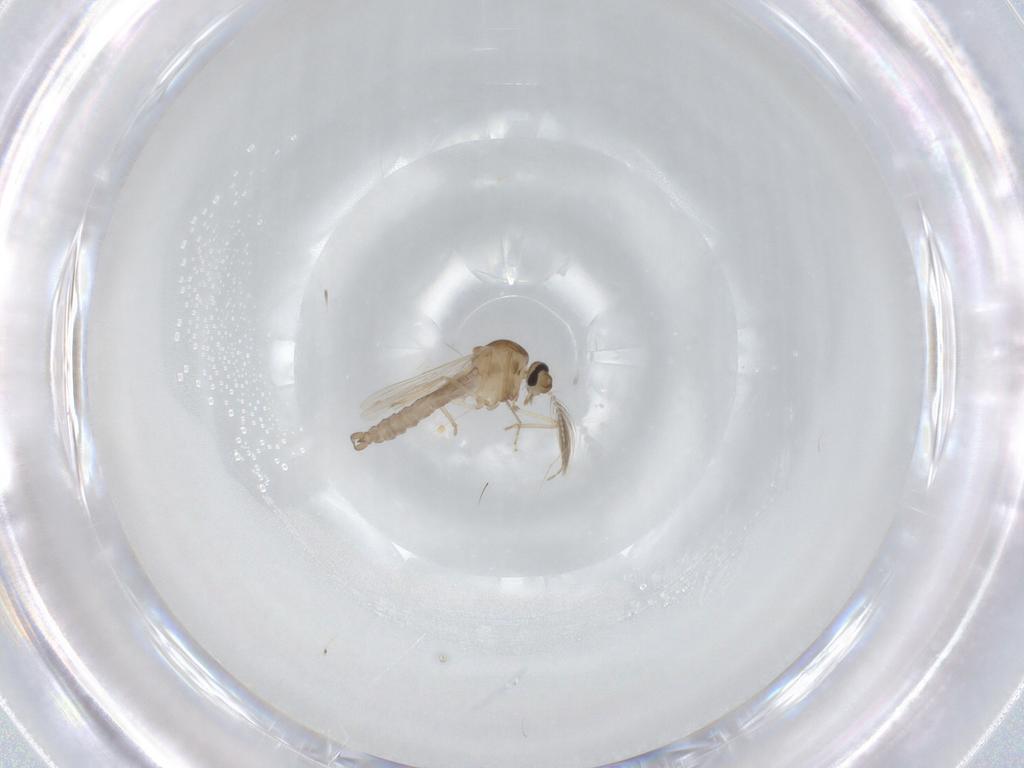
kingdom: Animalia
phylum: Arthropoda
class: Insecta
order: Diptera
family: Ceratopogonidae
